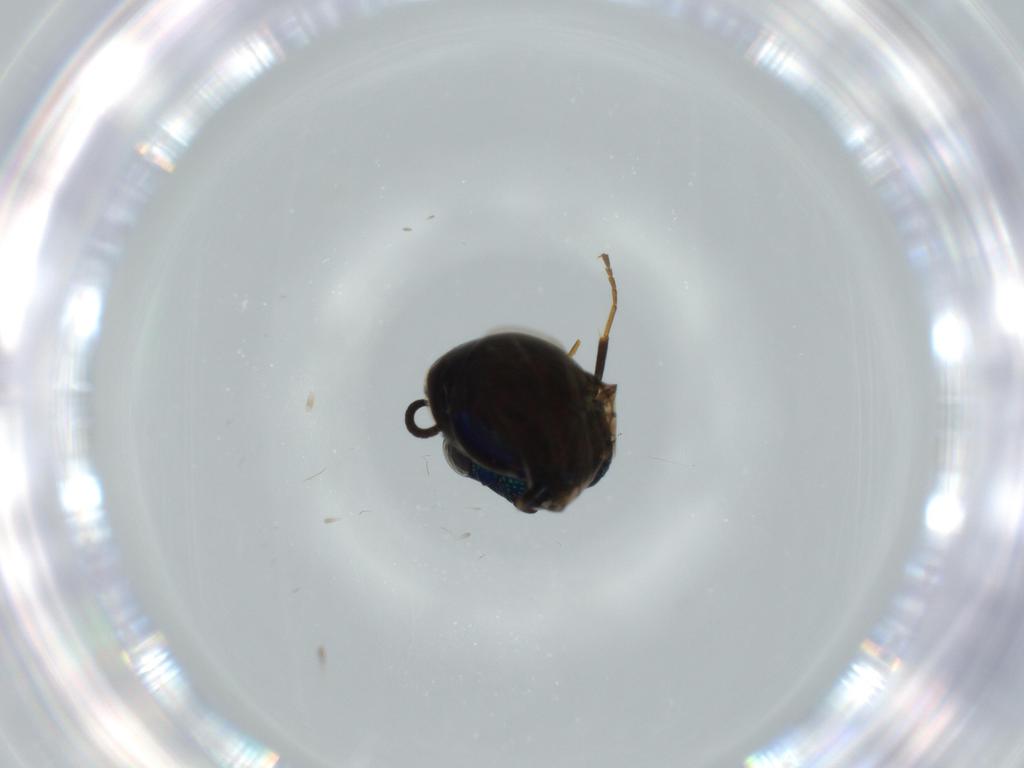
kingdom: Animalia
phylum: Arthropoda
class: Insecta
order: Hymenoptera
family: Chrysididae
